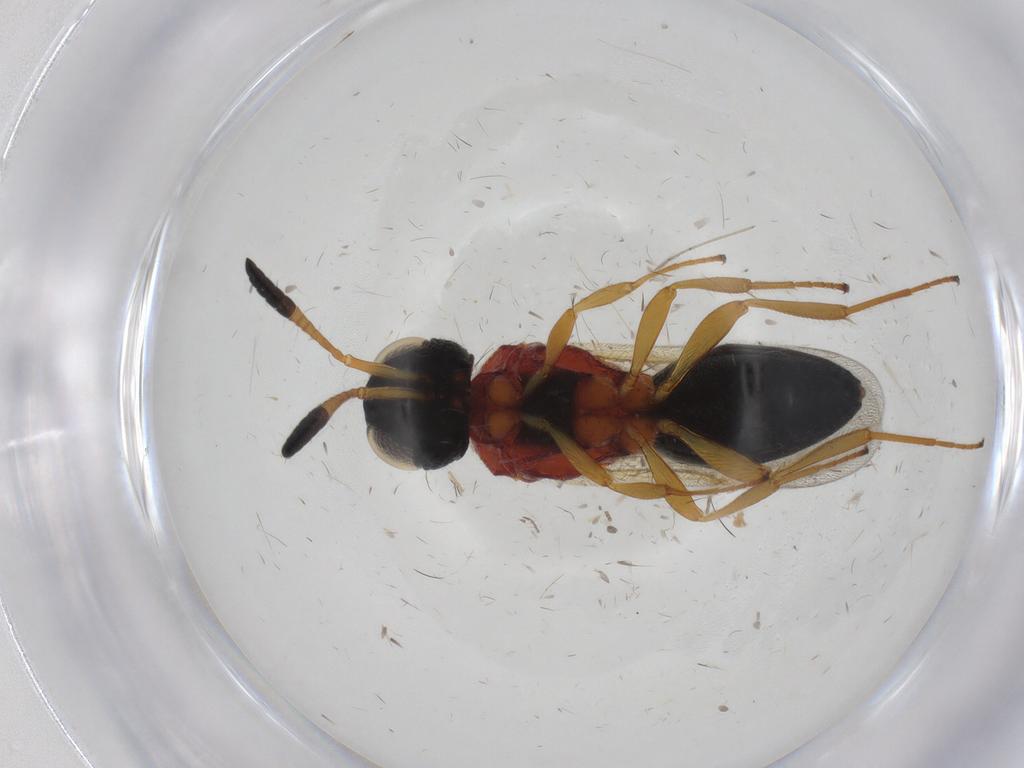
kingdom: Animalia
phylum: Arthropoda
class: Insecta
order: Hymenoptera
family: Scelionidae
